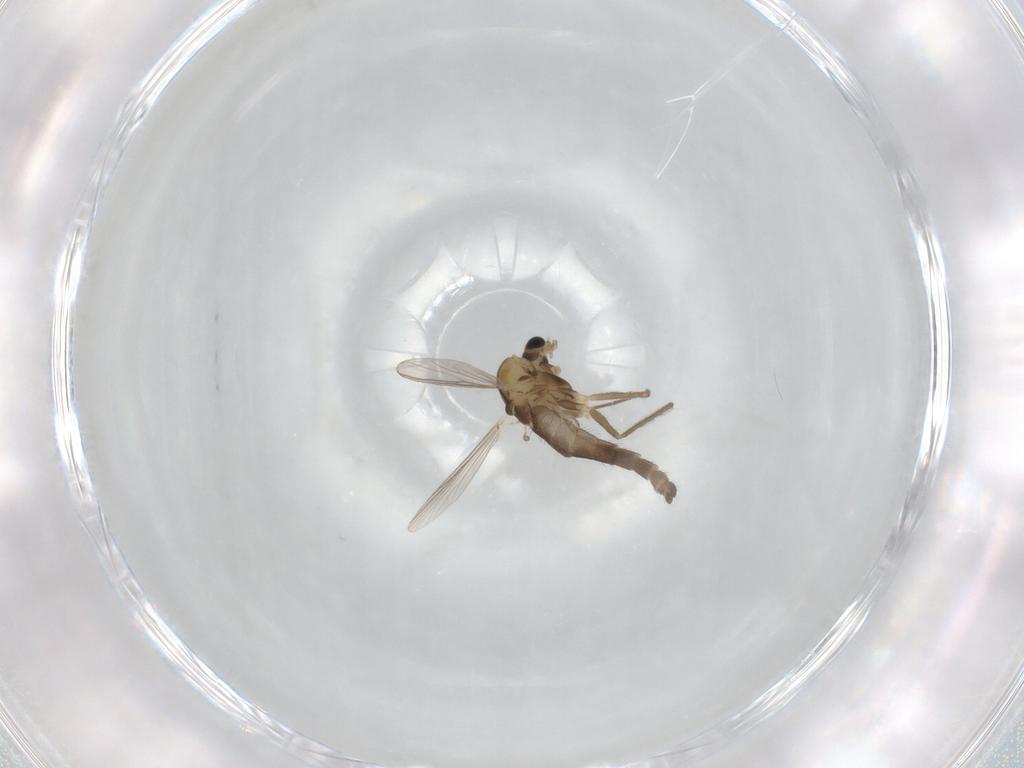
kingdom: Animalia
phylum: Arthropoda
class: Insecta
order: Diptera
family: Chironomidae
